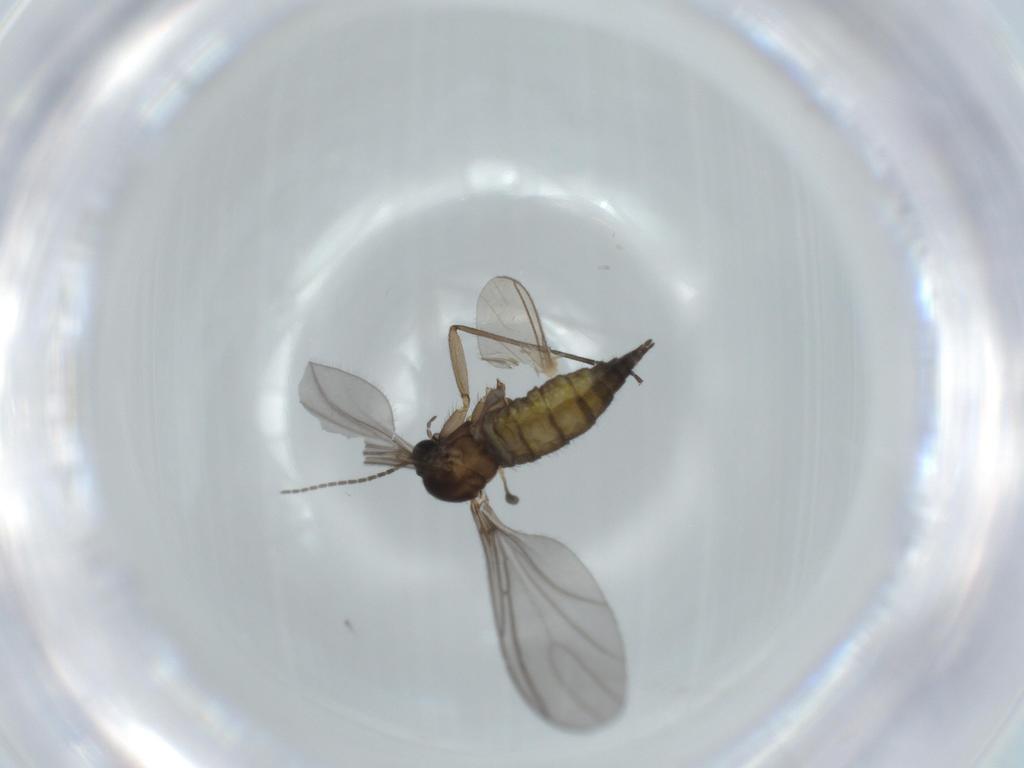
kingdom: Animalia
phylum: Arthropoda
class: Insecta
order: Diptera
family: Sciaridae
